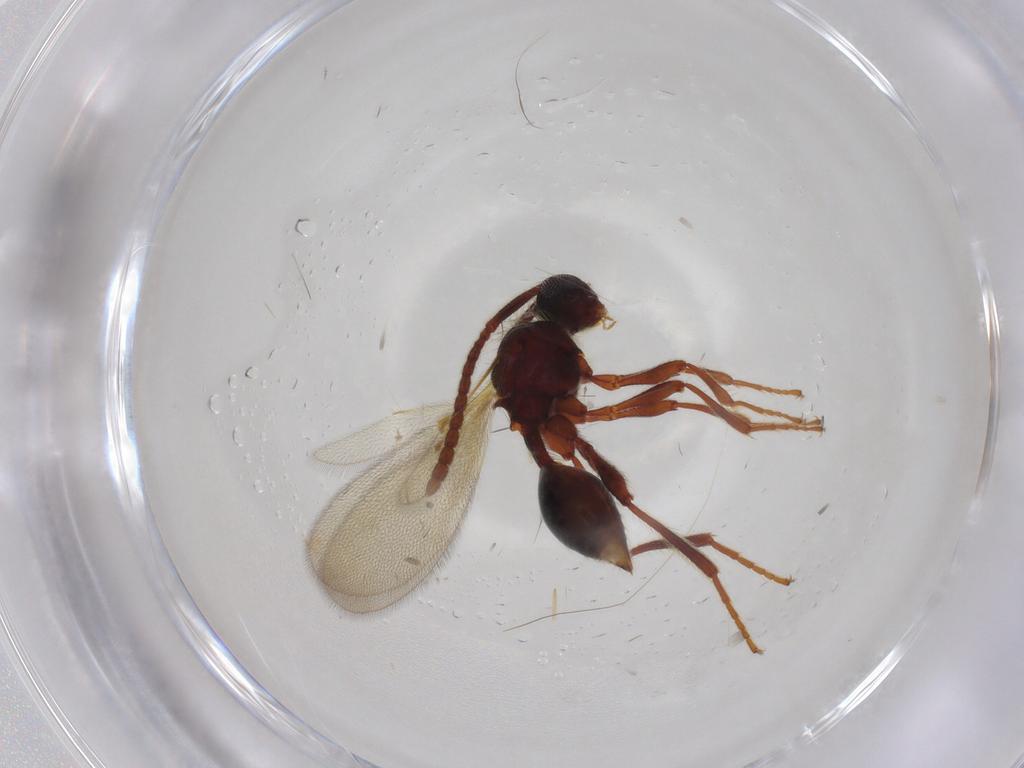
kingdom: Animalia
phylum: Arthropoda
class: Insecta
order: Hymenoptera
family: Diapriidae
